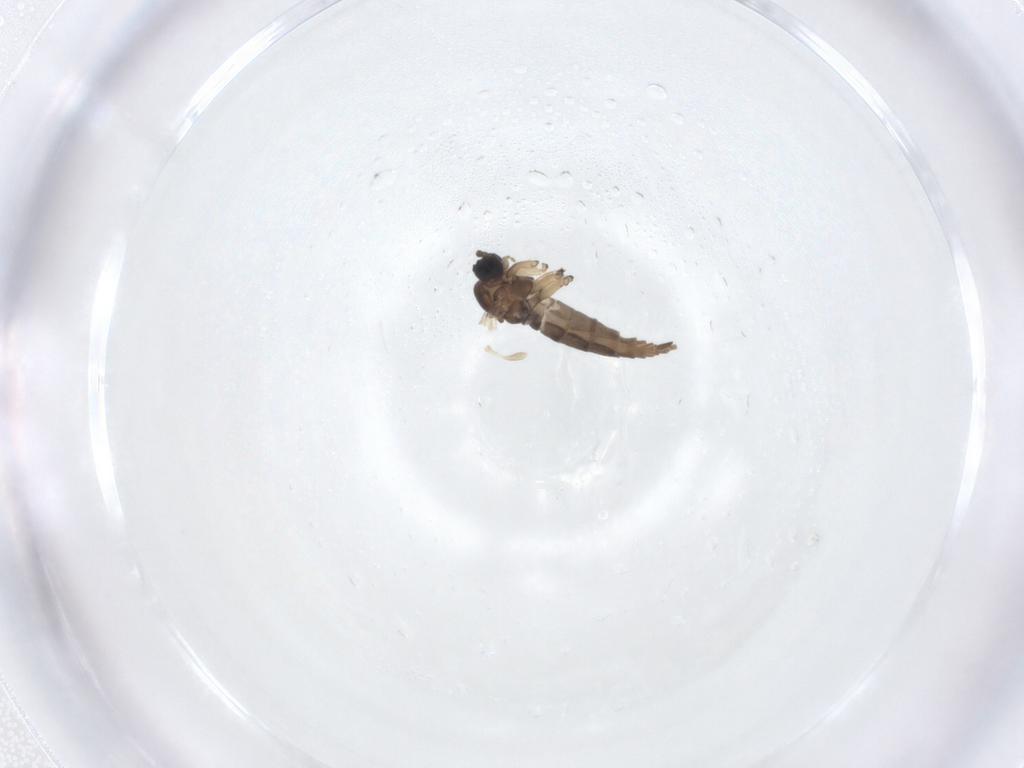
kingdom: Animalia
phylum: Arthropoda
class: Insecta
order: Diptera
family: Sciaridae
